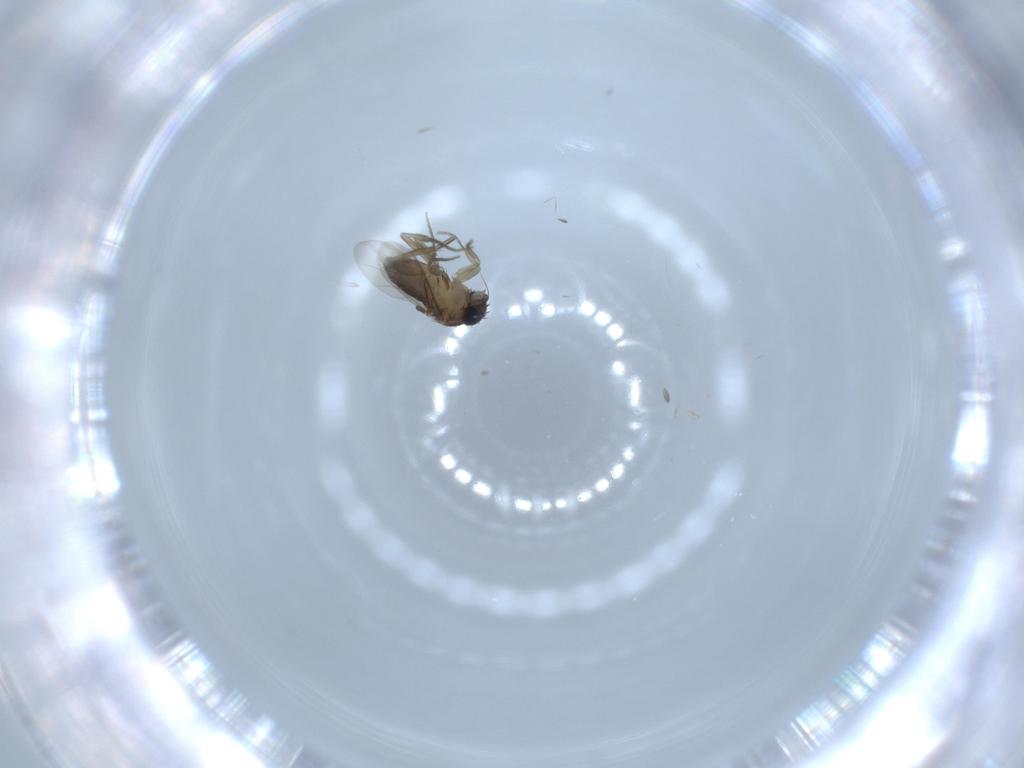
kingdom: Animalia
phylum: Arthropoda
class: Insecta
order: Diptera
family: Phoridae
